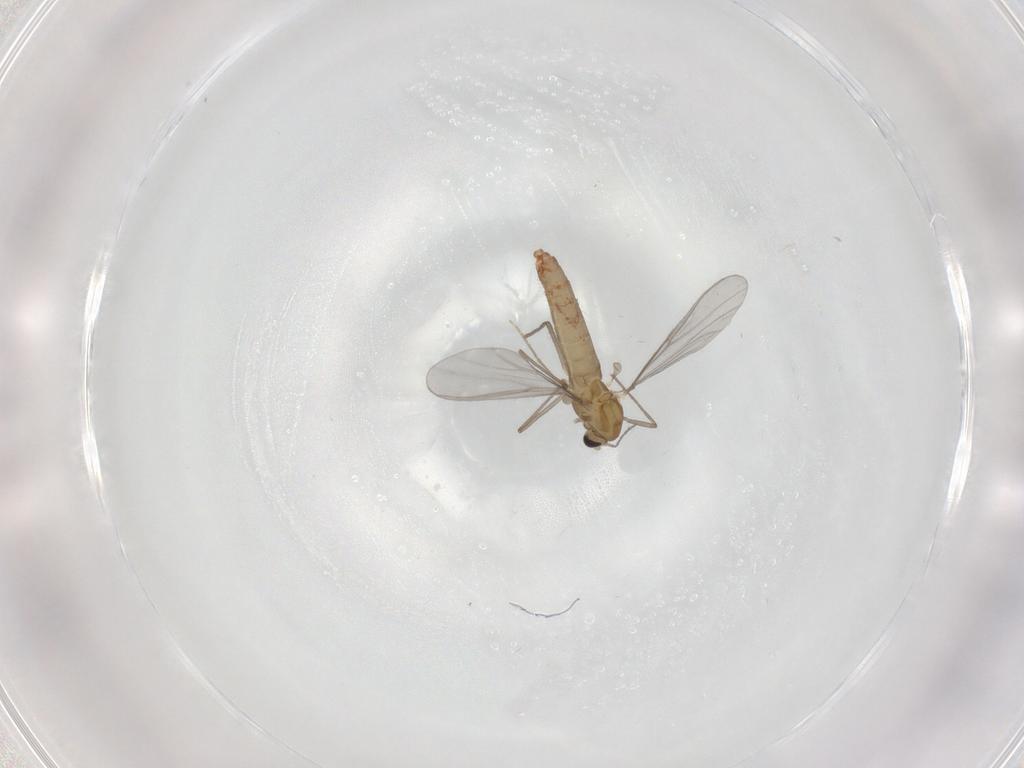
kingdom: Animalia
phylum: Arthropoda
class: Insecta
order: Diptera
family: Chironomidae
